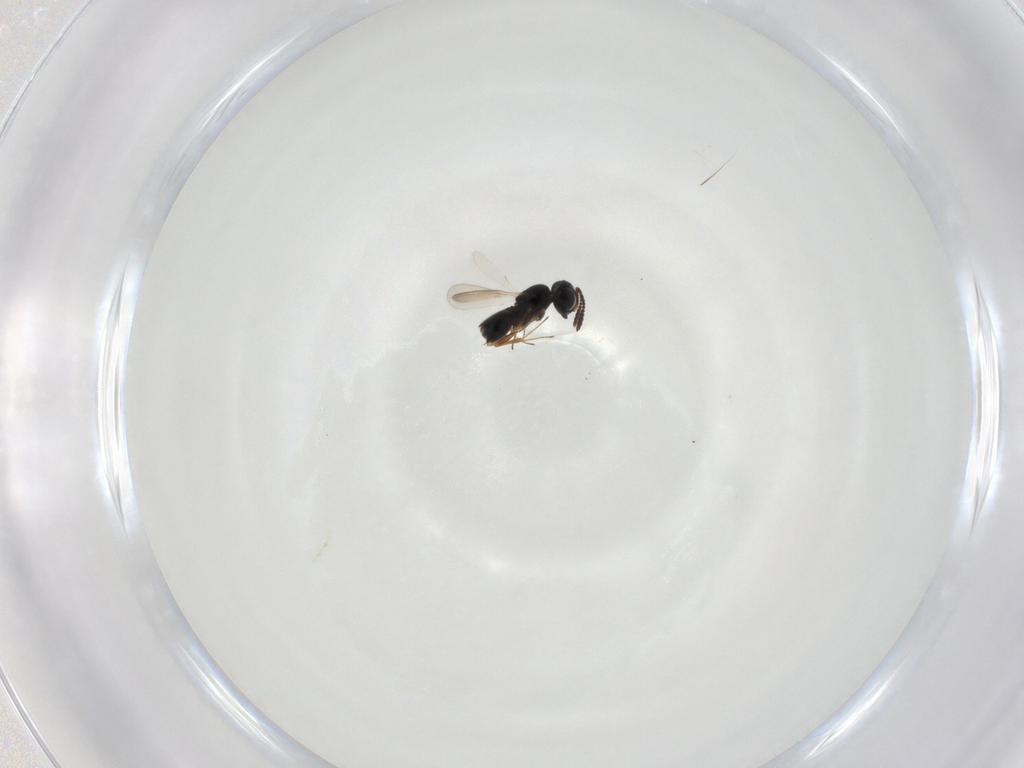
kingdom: Animalia
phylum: Arthropoda
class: Insecta
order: Hymenoptera
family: Scelionidae
